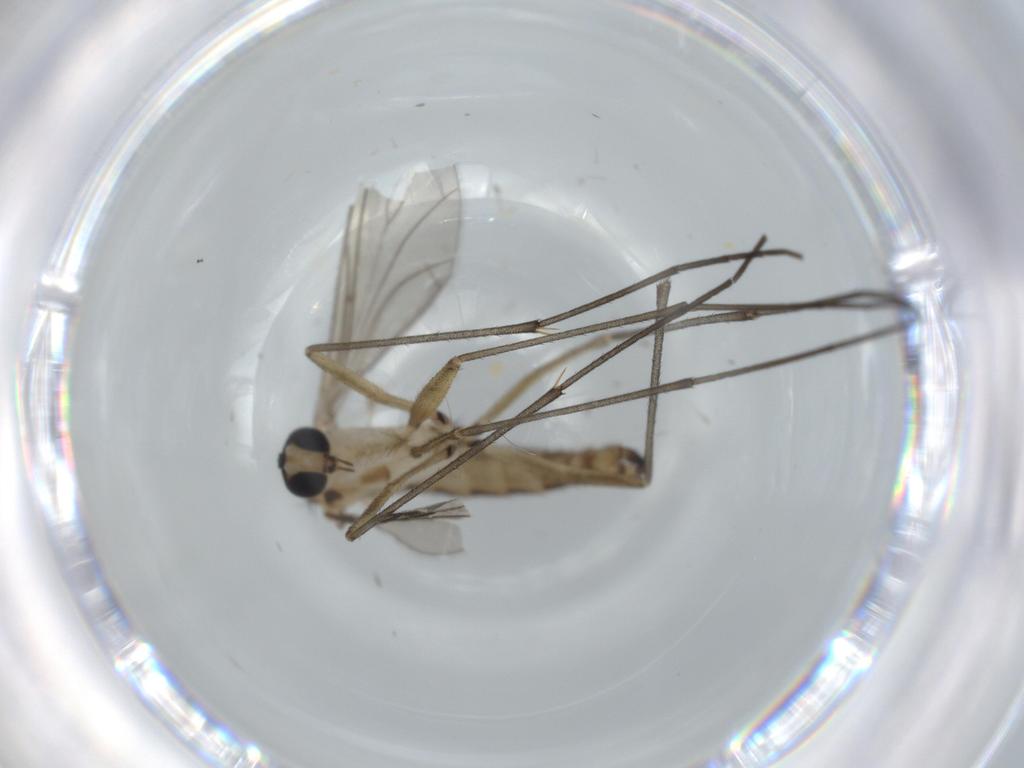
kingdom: Animalia
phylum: Arthropoda
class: Insecta
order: Diptera
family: Sciaridae
